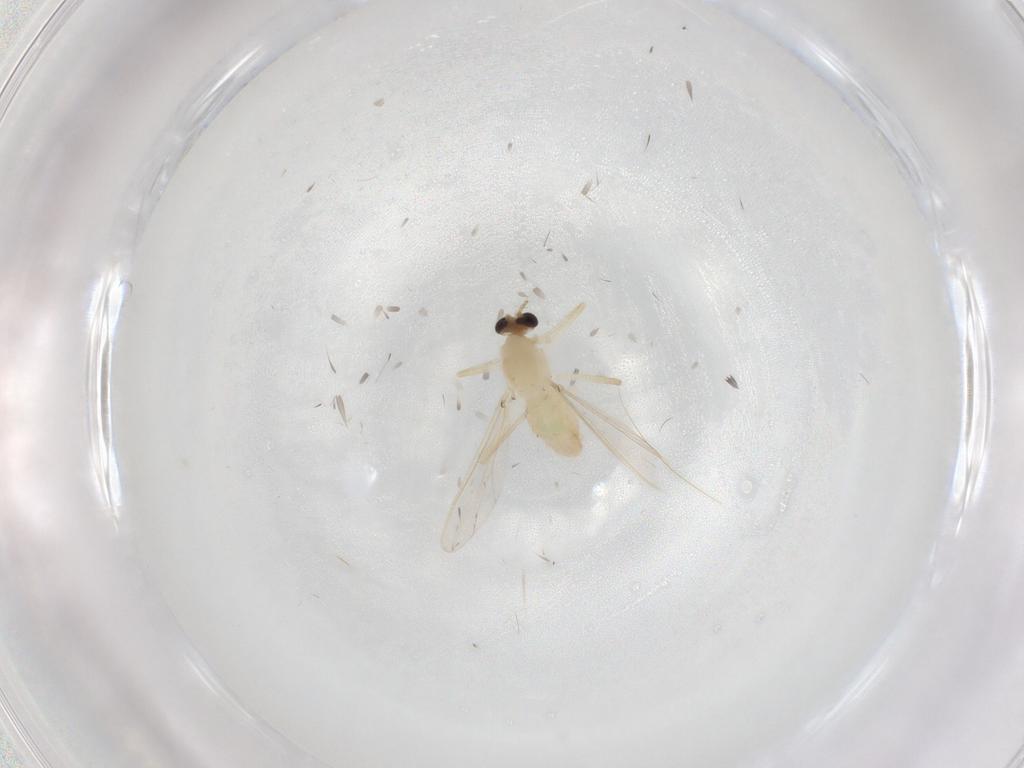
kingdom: Animalia
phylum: Arthropoda
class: Insecta
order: Diptera
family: Chironomidae
